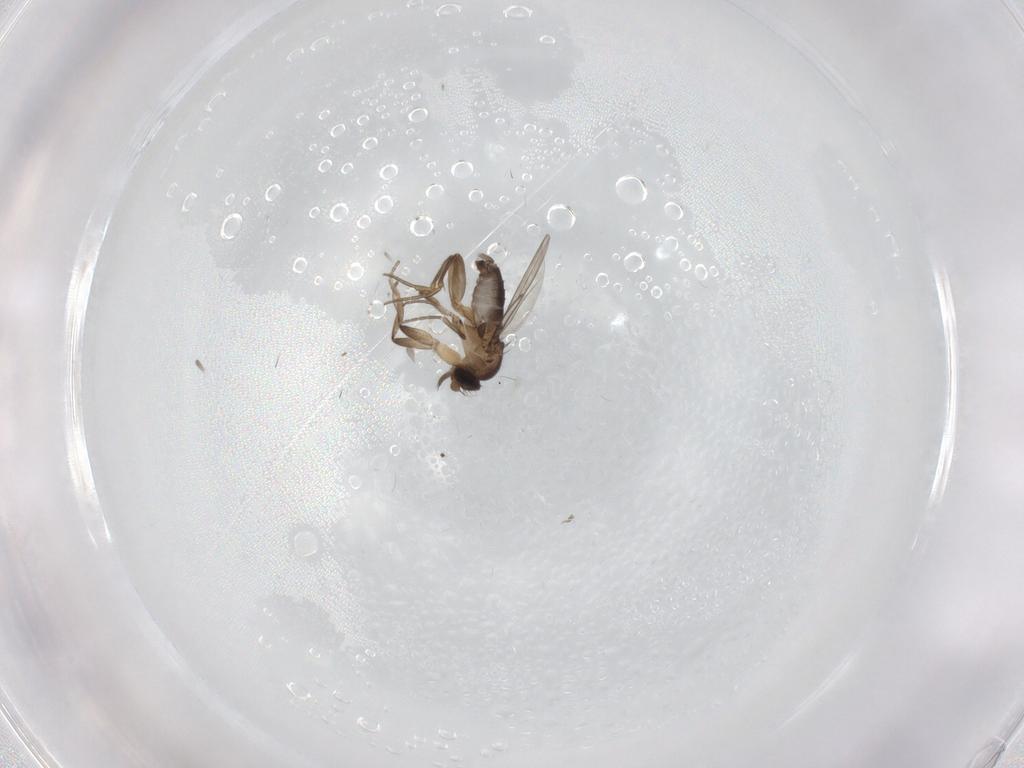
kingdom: Animalia
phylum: Arthropoda
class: Insecta
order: Diptera
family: Phoridae
